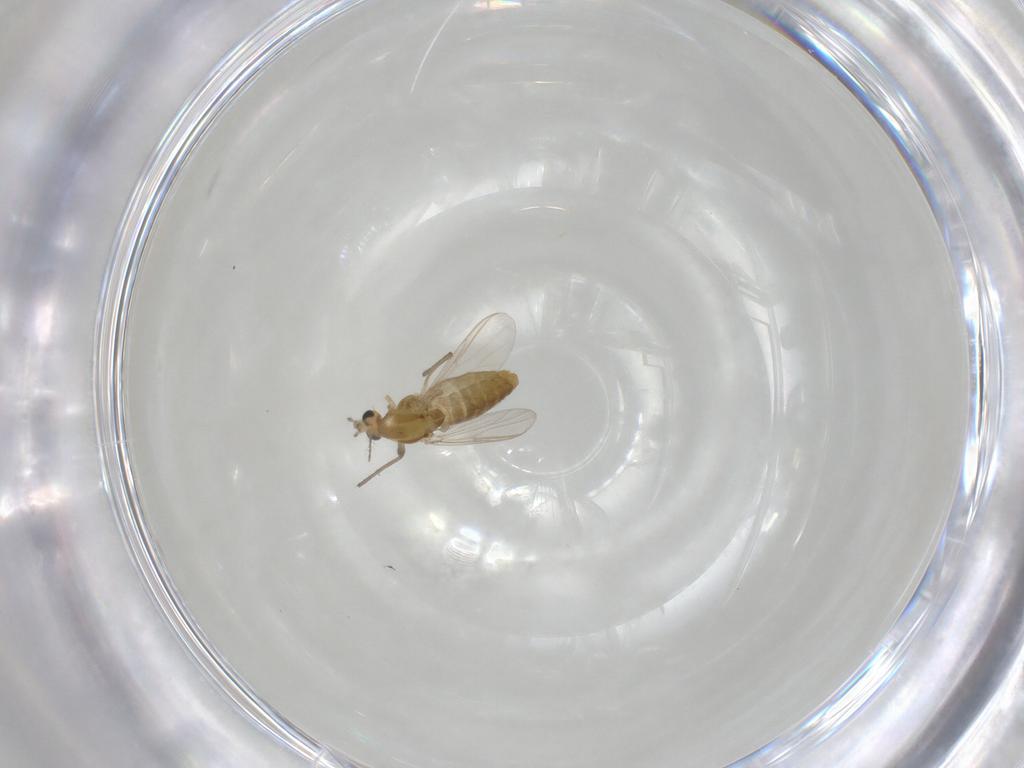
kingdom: Animalia
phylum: Arthropoda
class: Insecta
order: Diptera
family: Chironomidae
